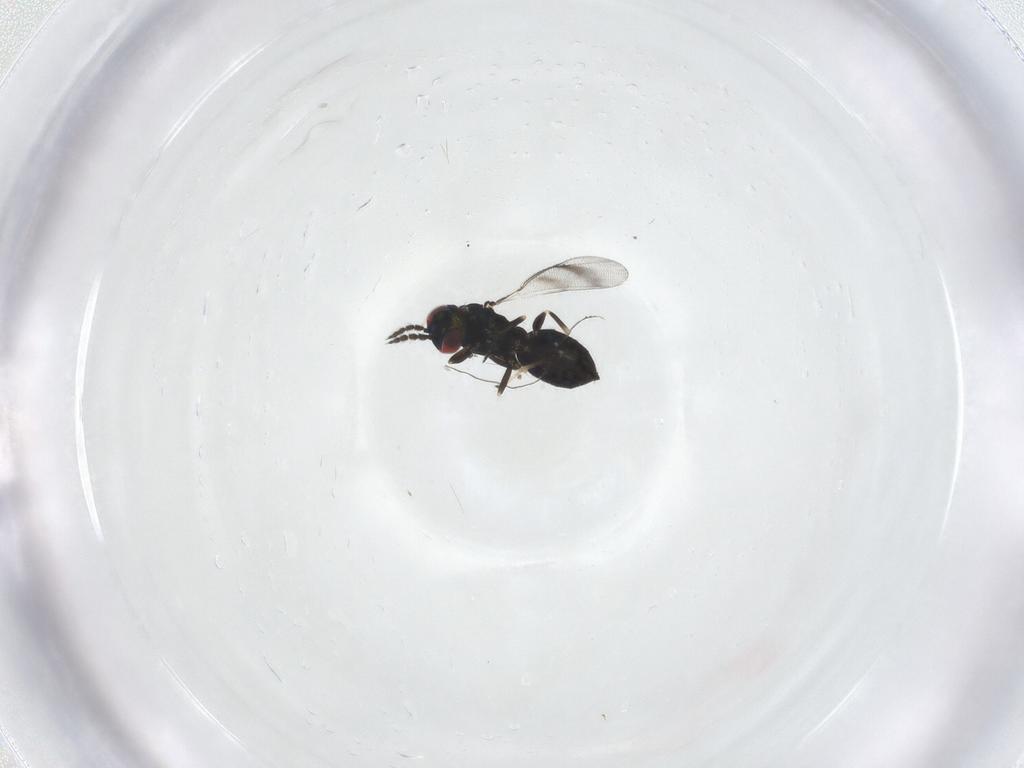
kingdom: Animalia
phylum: Arthropoda
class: Insecta
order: Hymenoptera
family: Eulophidae
